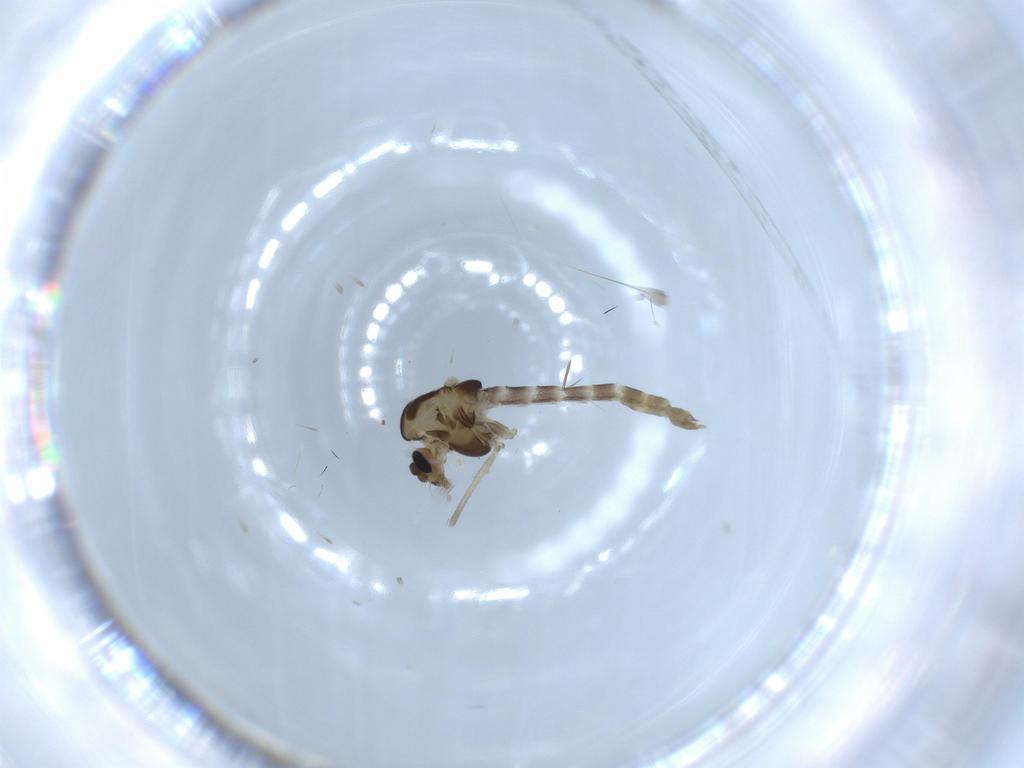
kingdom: Animalia
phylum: Arthropoda
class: Insecta
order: Diptera
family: Chironomidae
